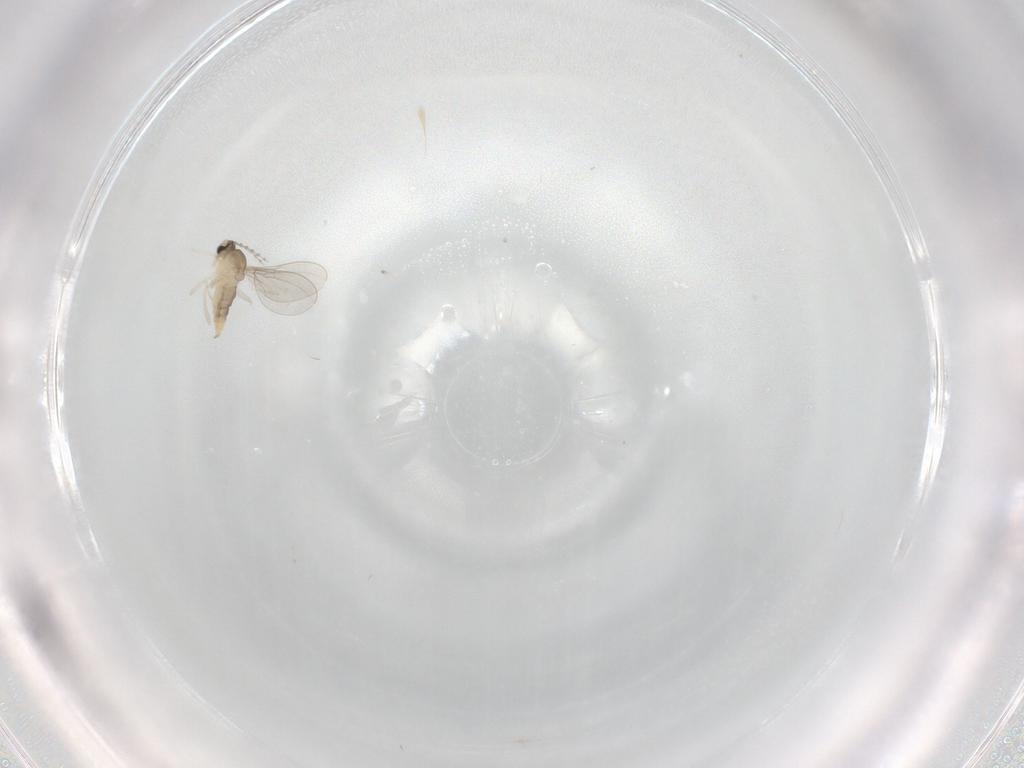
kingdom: Animalia
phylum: Arthropoda
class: Insecta
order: Diptera
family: Cecidomyiidae
